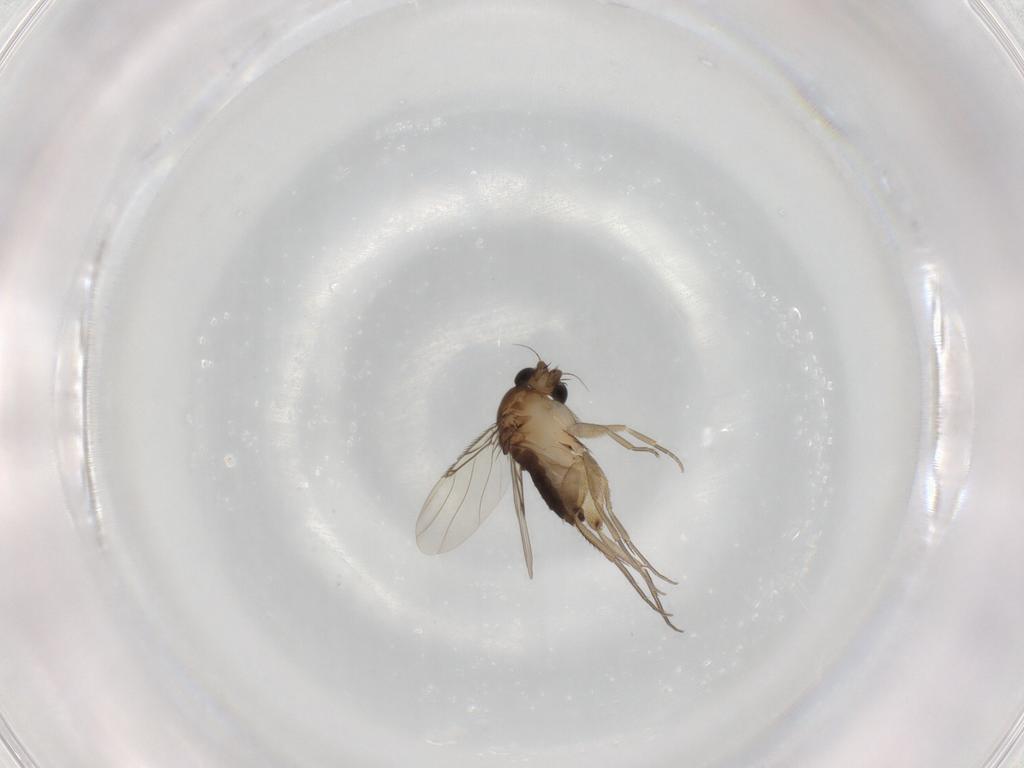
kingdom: Animalia
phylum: Arthropoda
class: Insecta
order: Diptera
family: Phoridae
